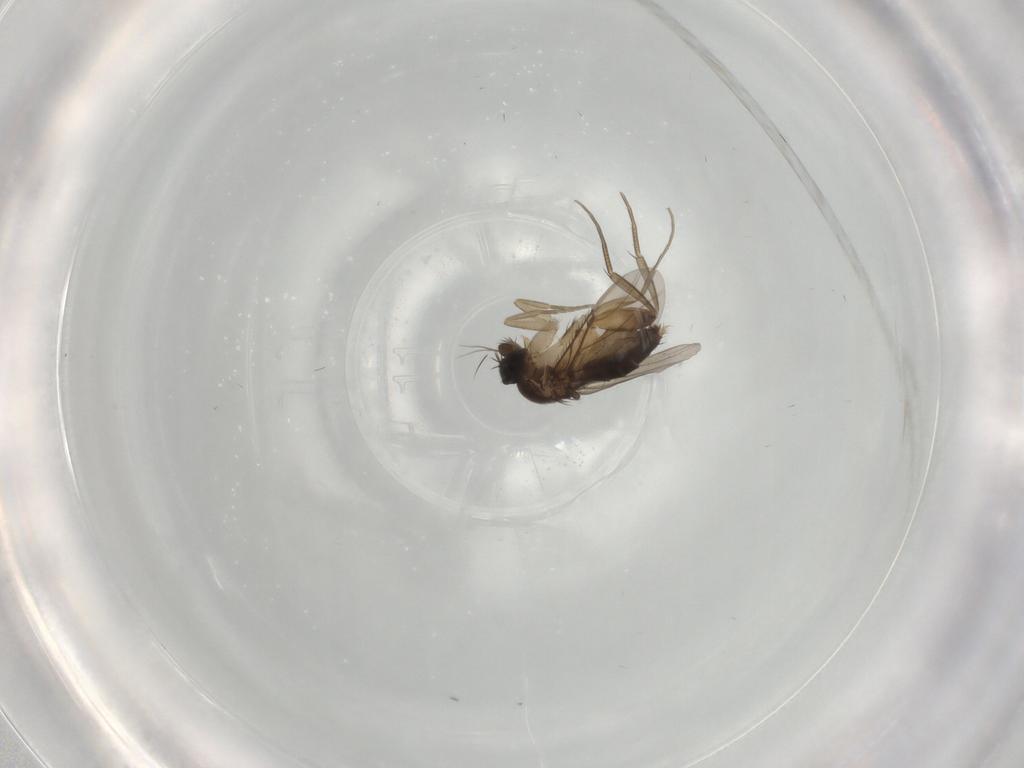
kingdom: Animalia
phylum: Arthropoda
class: Insecta
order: Diptera
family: Phoridae
